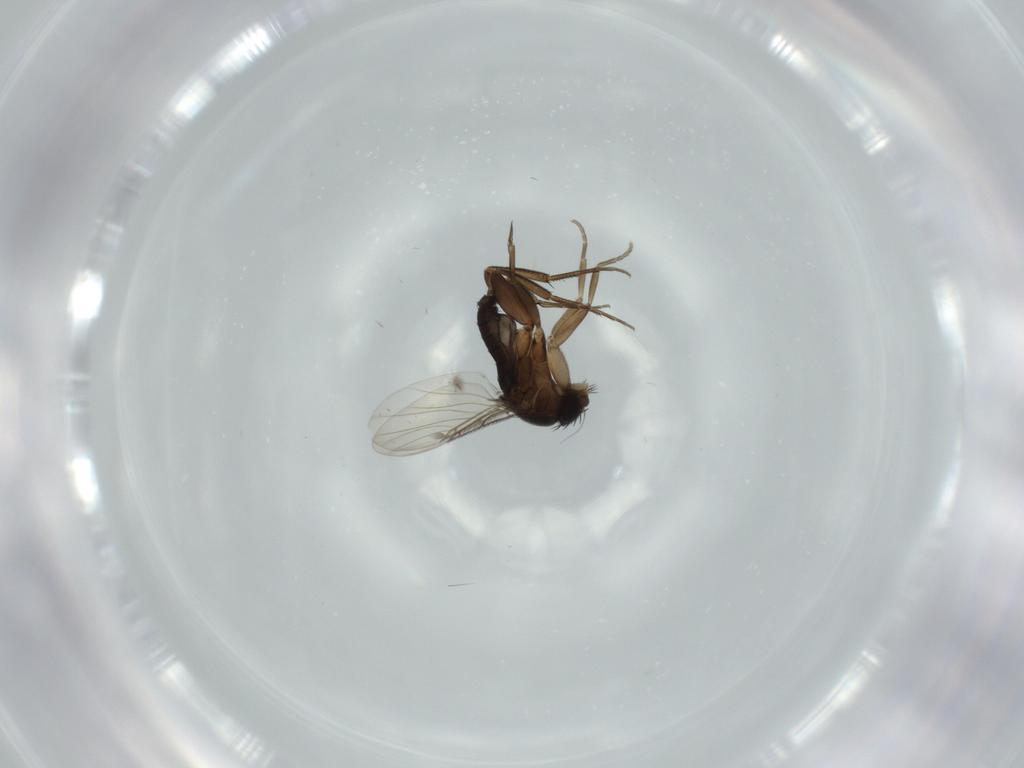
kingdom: Animalia
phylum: Arthropoda
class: Insecta
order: Diptera
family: Phoridae
